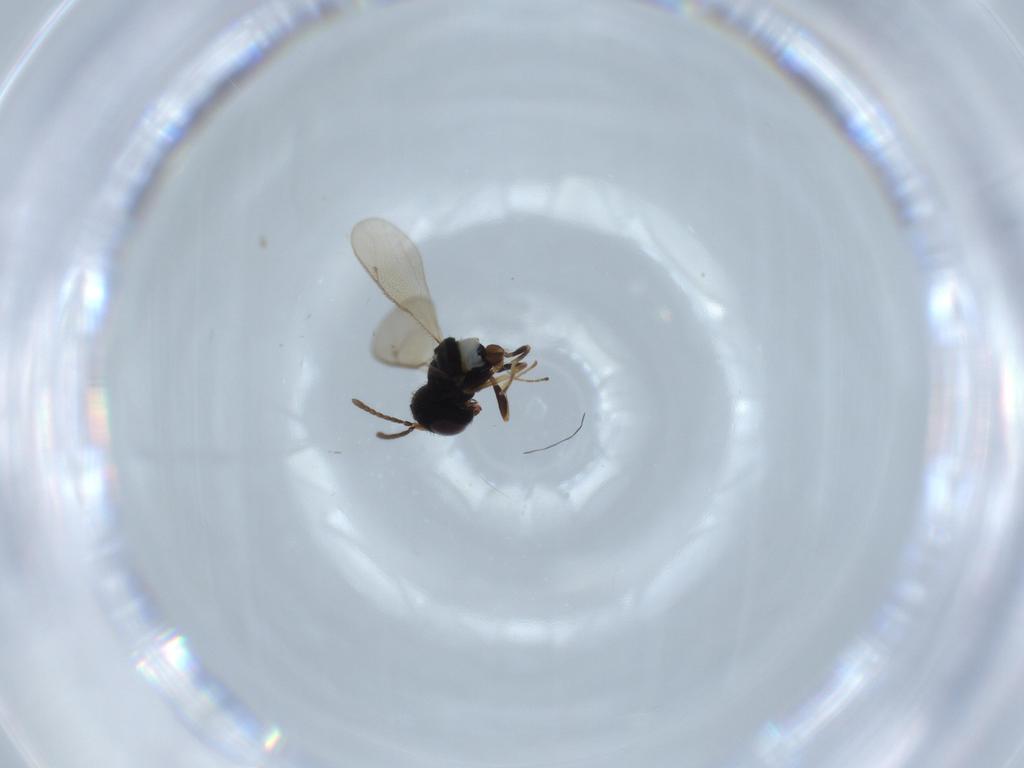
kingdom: Animalia
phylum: Arthropoda
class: Insecta
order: Hymenoptera
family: Pteromalidae
